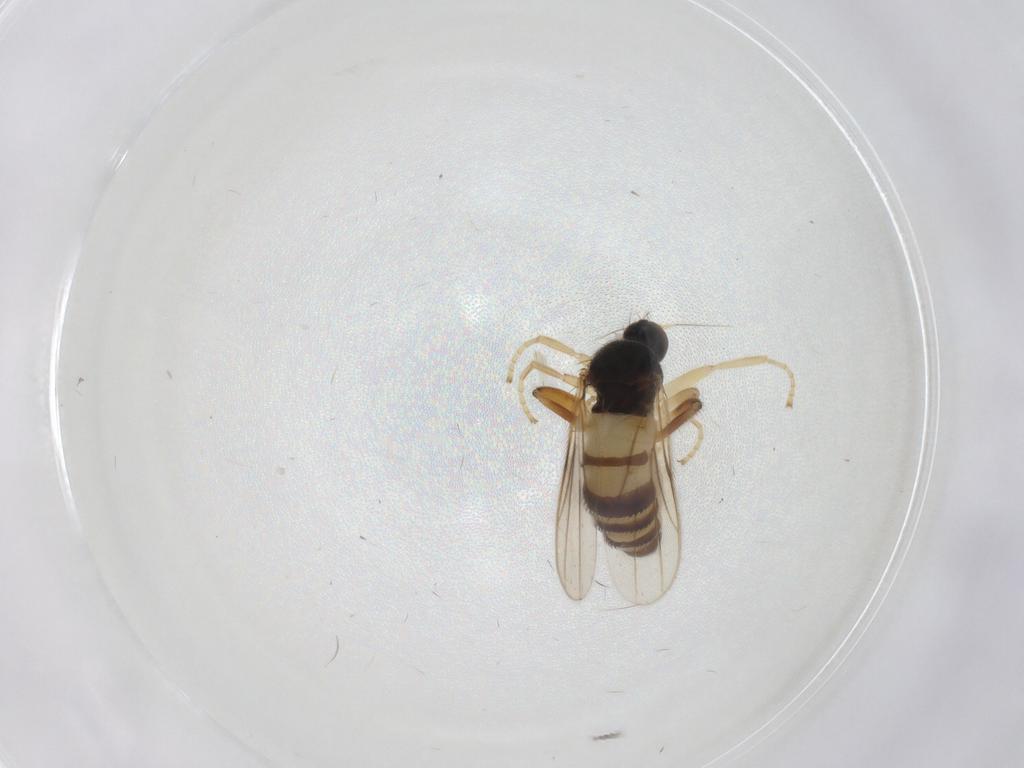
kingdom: Animalia
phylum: Arthropoda
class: Insecta
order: Diptera
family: Hybotidae
